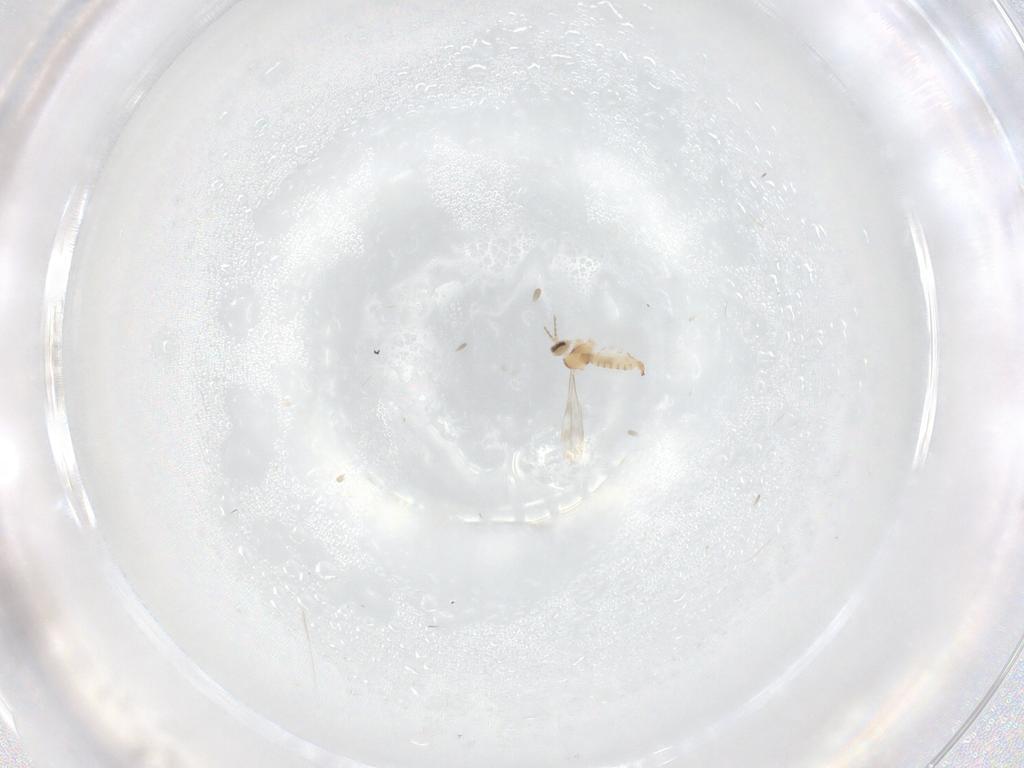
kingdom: Animalia
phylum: Arthropoda
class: Insecta
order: Diptera
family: Cecidomyiidae
